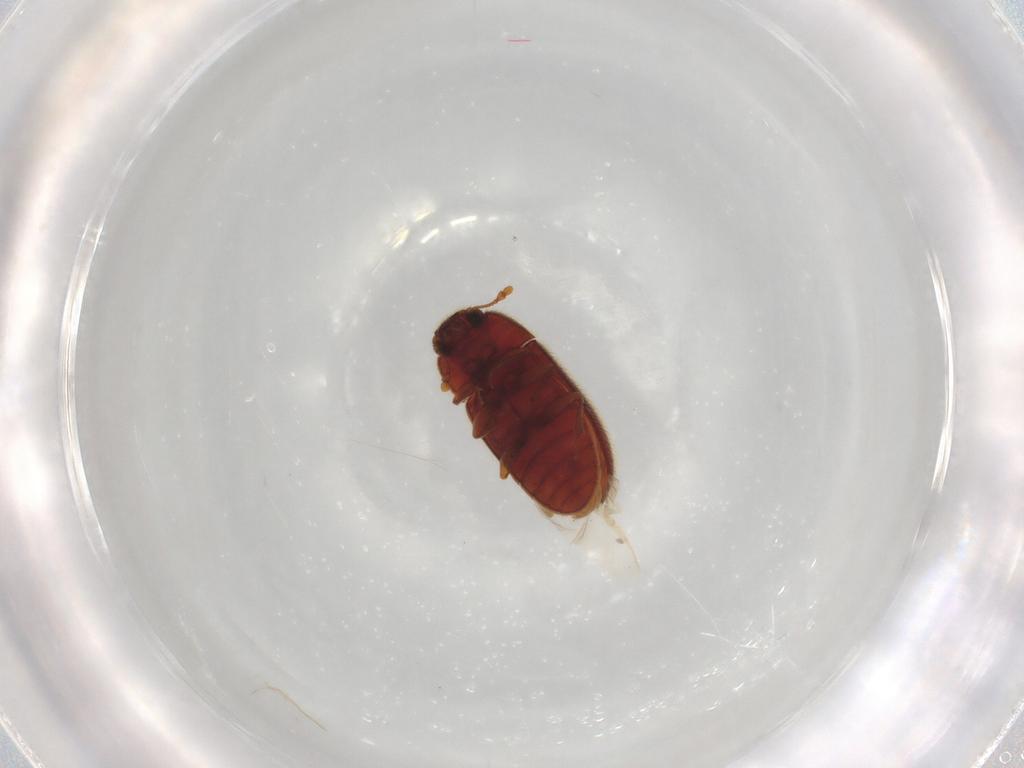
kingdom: Animalia
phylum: Arthropoda
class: Insecta
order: Coleoptera
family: Biphyllidae
